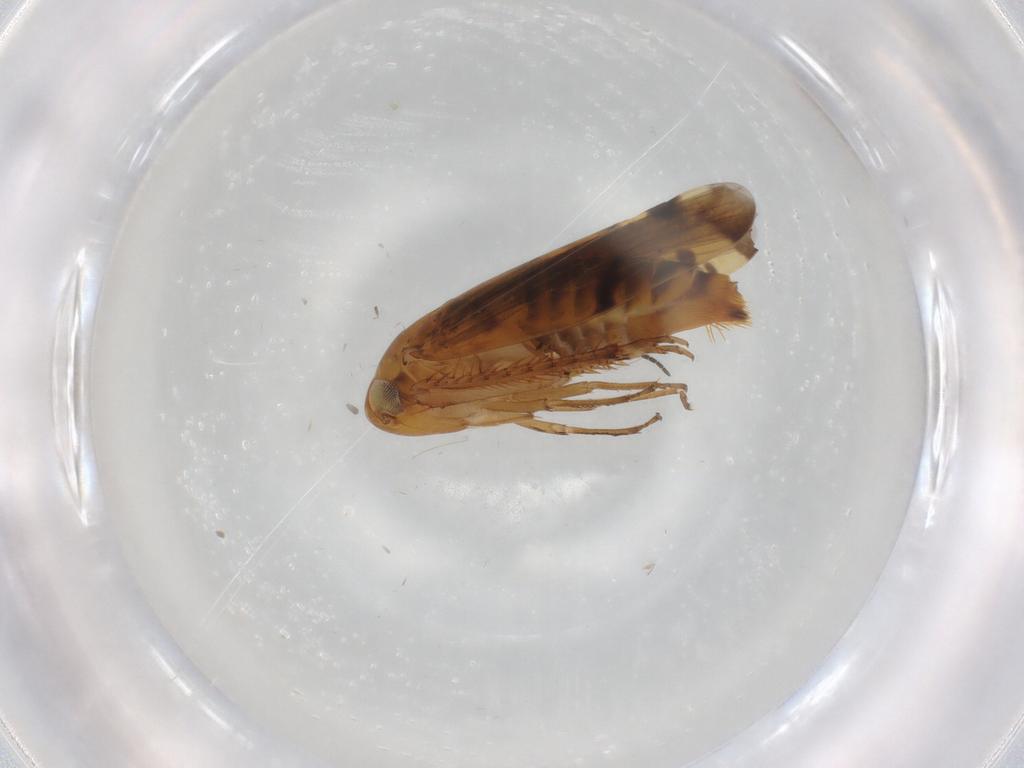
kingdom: Animalia
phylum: Arthropoda
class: Insecta
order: Hemiptera
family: Cicadellidae
